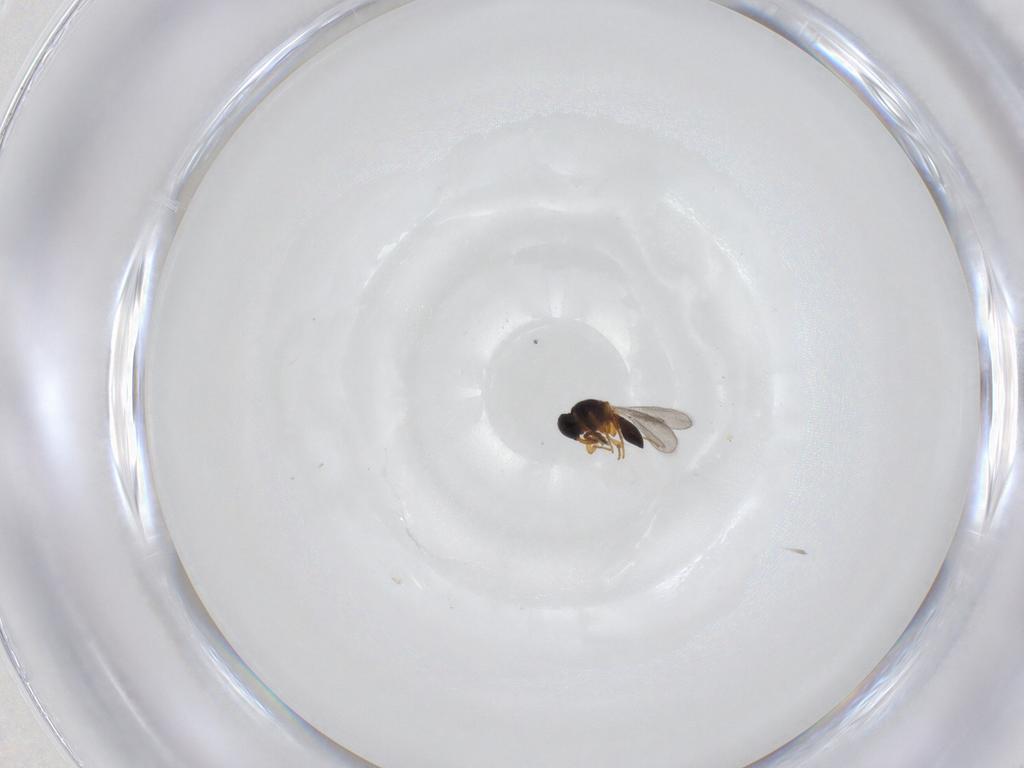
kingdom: Animalia
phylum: Arthropoda
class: Insecta
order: Hymenoptera
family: Platygastridae
